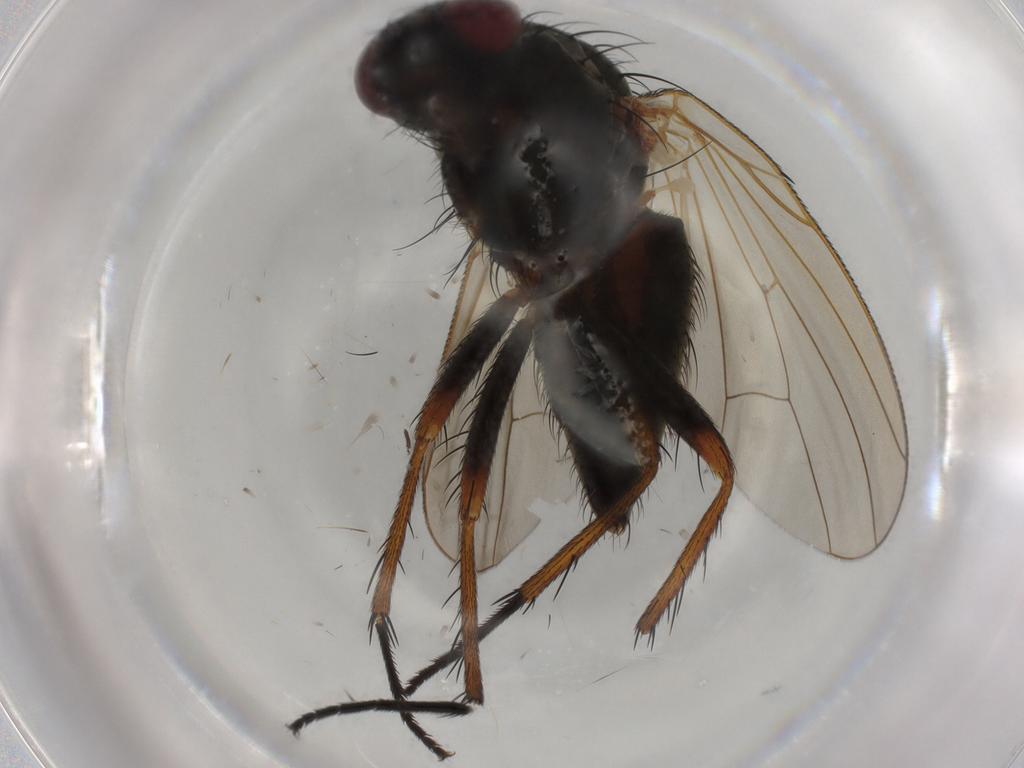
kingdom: Animalia
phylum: Arthropoda
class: Insecta
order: Diptera
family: Anthomyiidae
